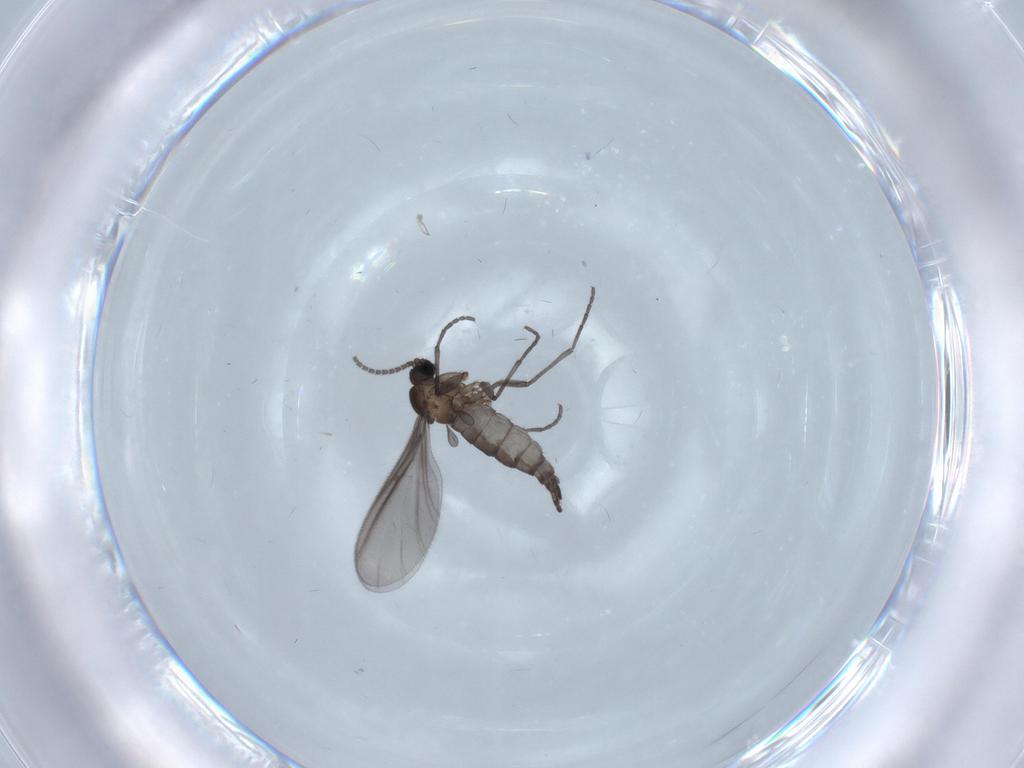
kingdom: Animalia
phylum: Arthropoda
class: Insecta
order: Diptera
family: Sciaridae
